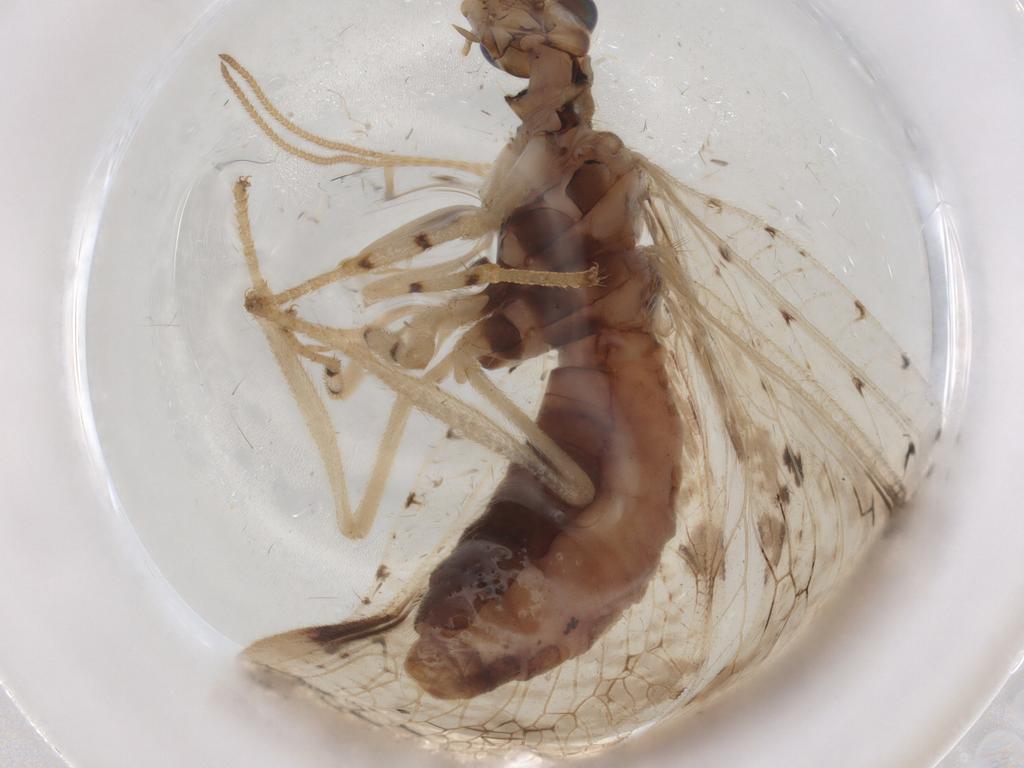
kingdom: Animalia
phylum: Arthropoda
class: Insecta
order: Neuroptera
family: Hemerobiidae
